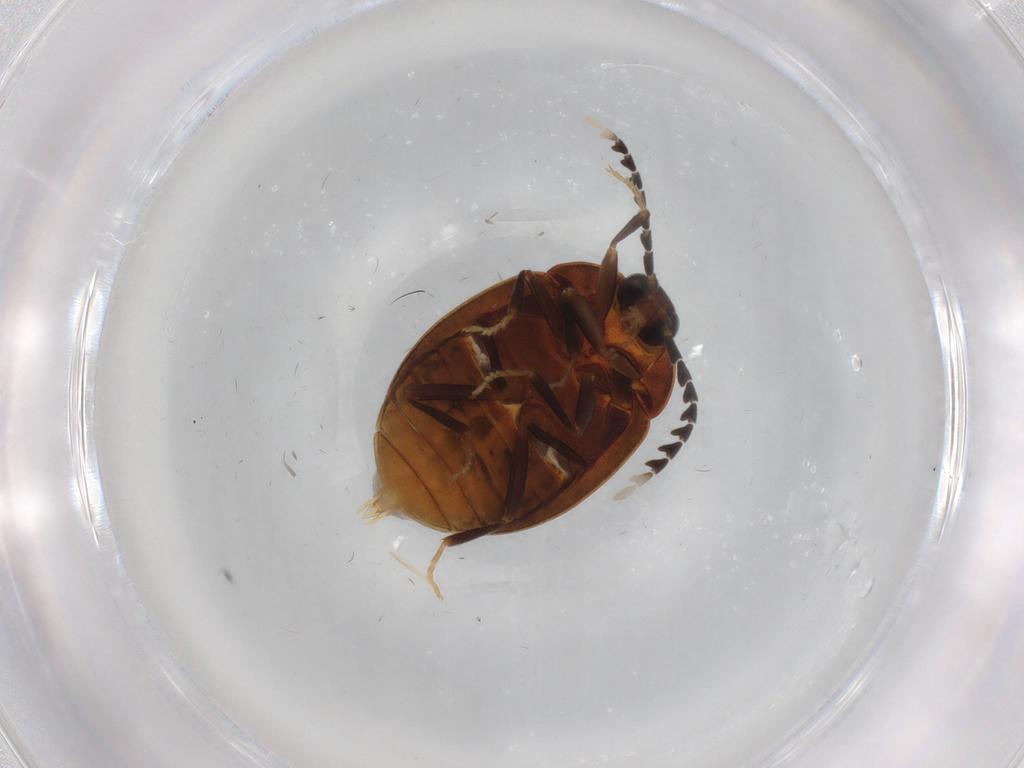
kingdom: Animalia
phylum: Arthropoda
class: Insecta
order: Coleoptera
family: Psephenidae
